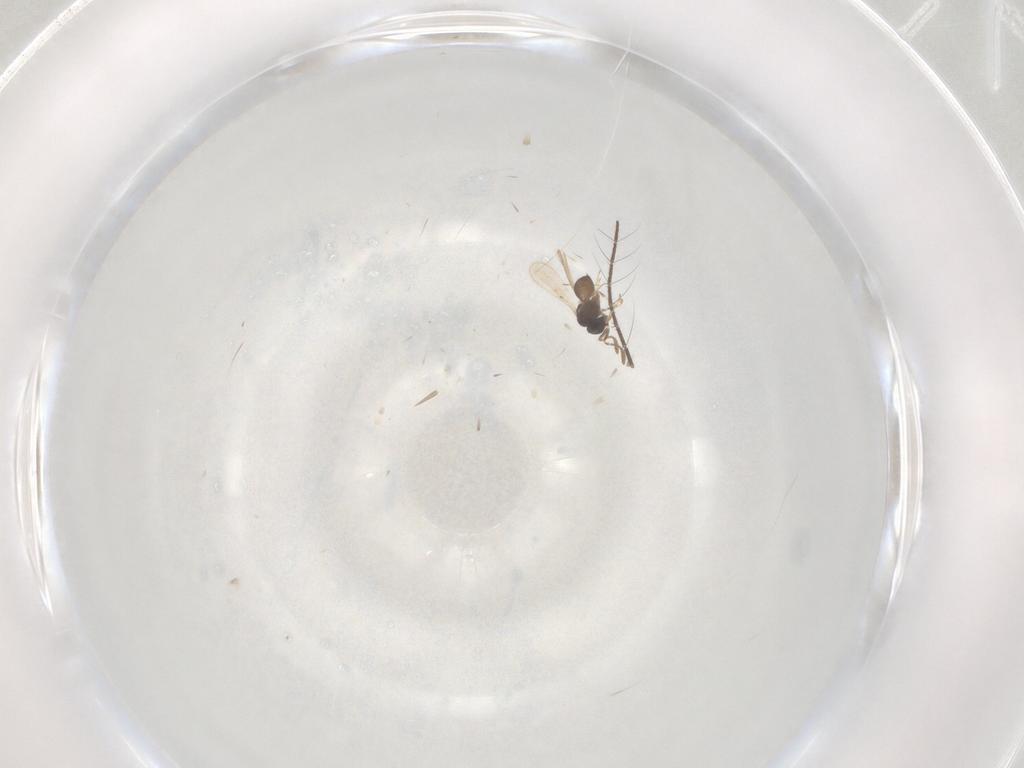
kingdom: Animalia
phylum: Arthropoda
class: Insecta
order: Hymenoptera
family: Scelionidae
